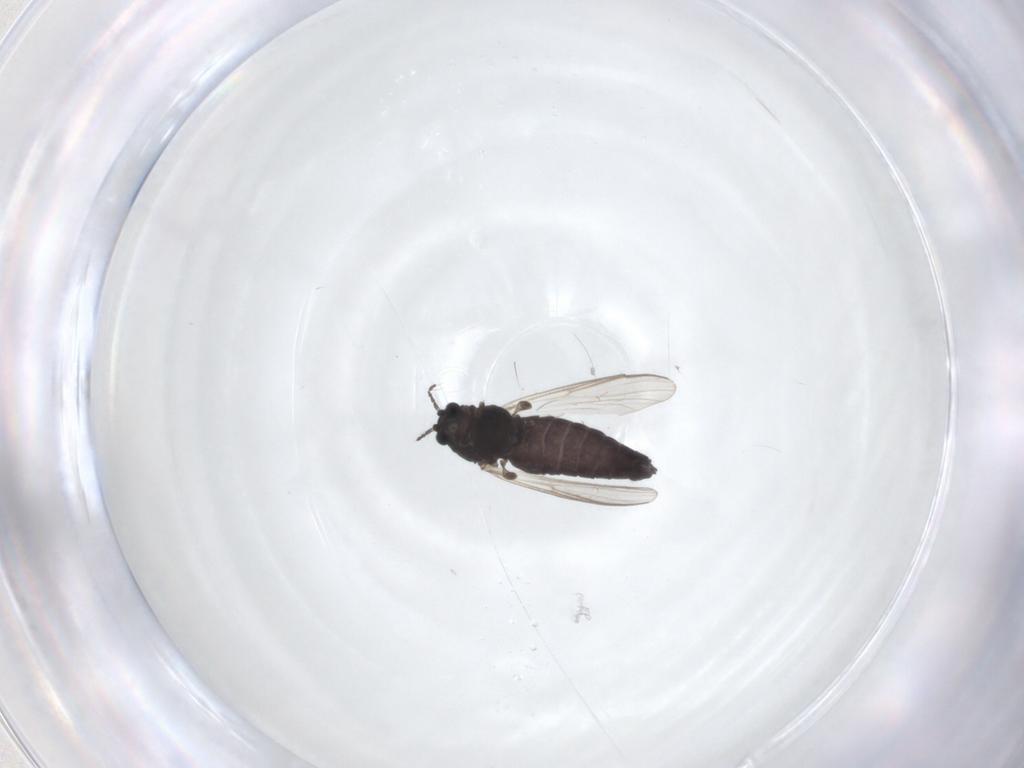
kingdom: Animalia
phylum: Arthropoda
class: Insecta
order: Diptera
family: Chironomidae
